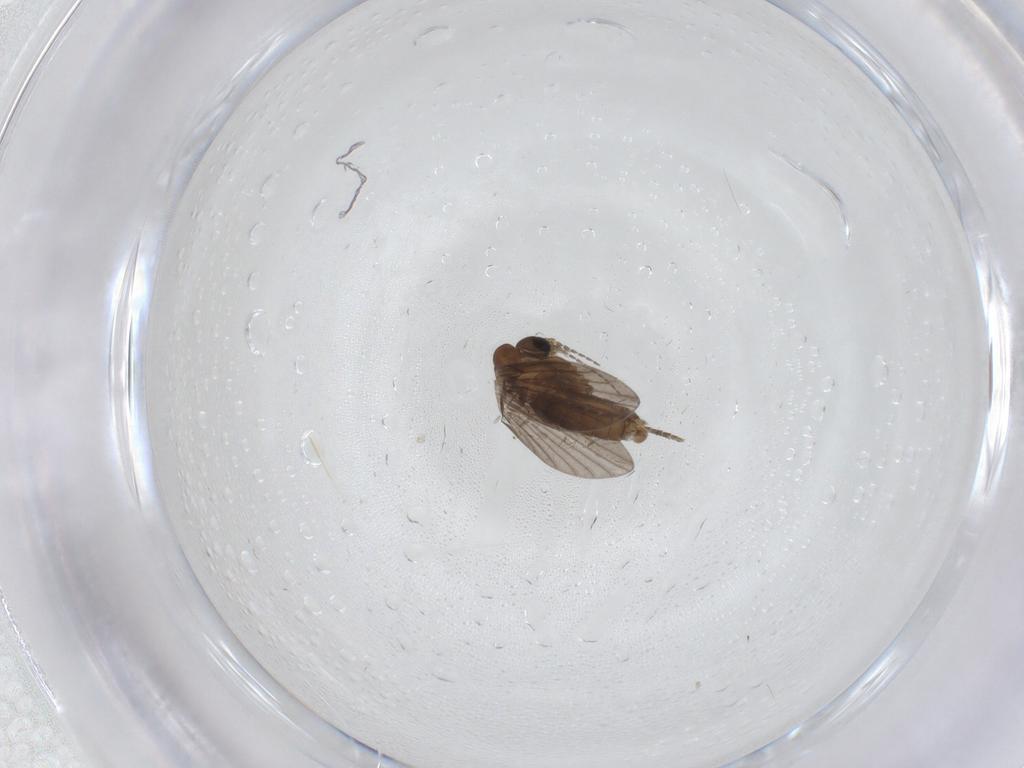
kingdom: Animalia
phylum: Arthropoda
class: Insecta
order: Diptera
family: Psychodidae
